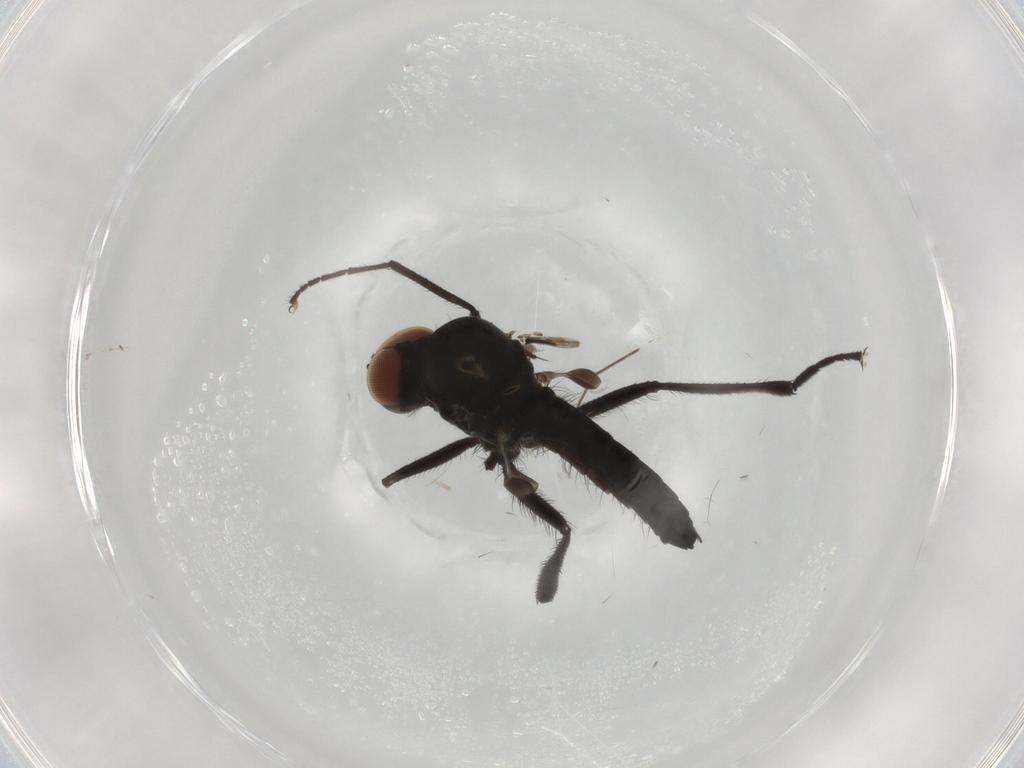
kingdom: Animalia
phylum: Arthropoda
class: Insecta
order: Diptera
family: Hybotidae
